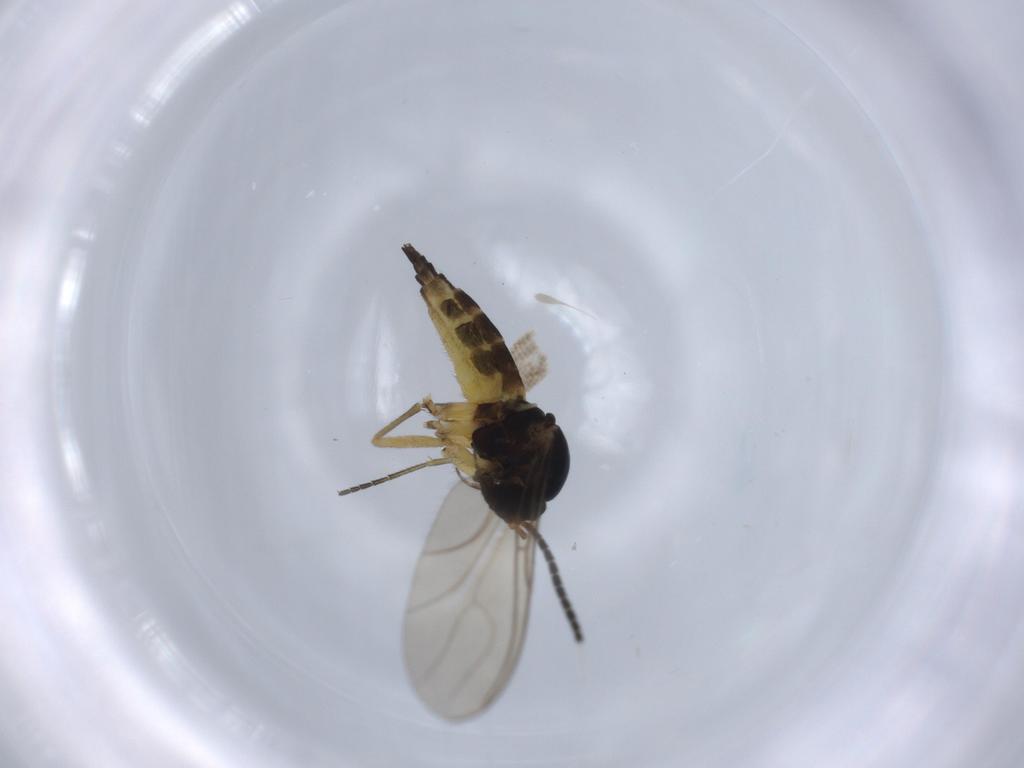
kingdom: Animalia
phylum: Arthropoda
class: Insecta
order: Diptera
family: Sciaridae
